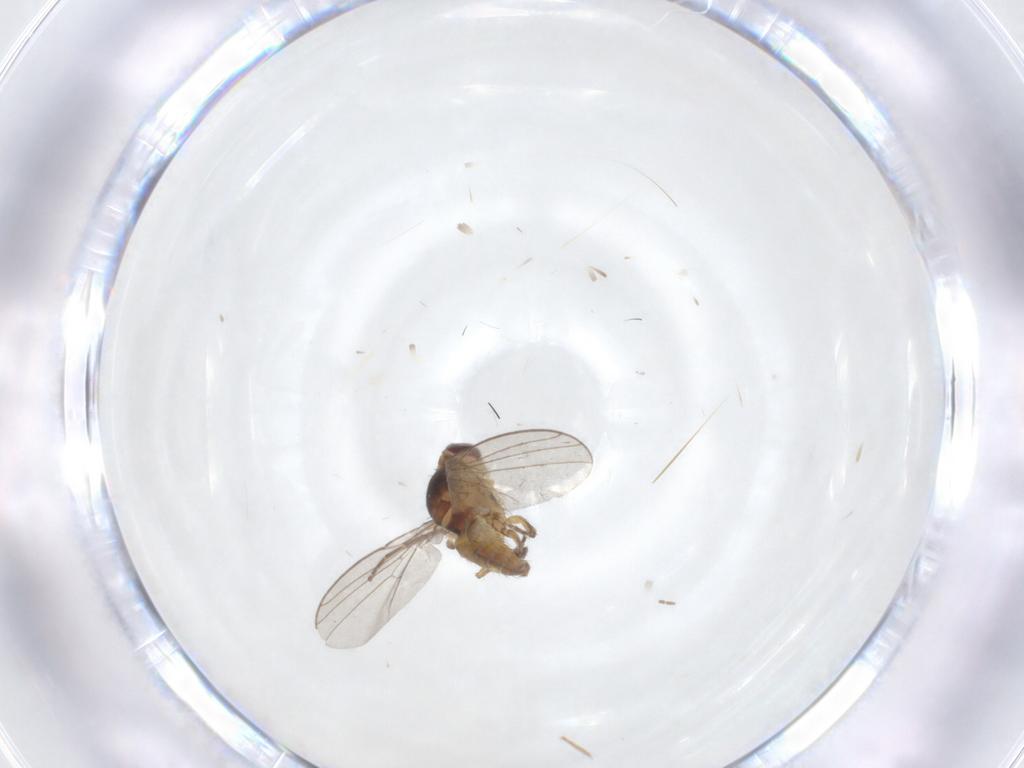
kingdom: Animalia
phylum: Arthropoda
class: Insecta
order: Diptera
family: Agromyzidae
